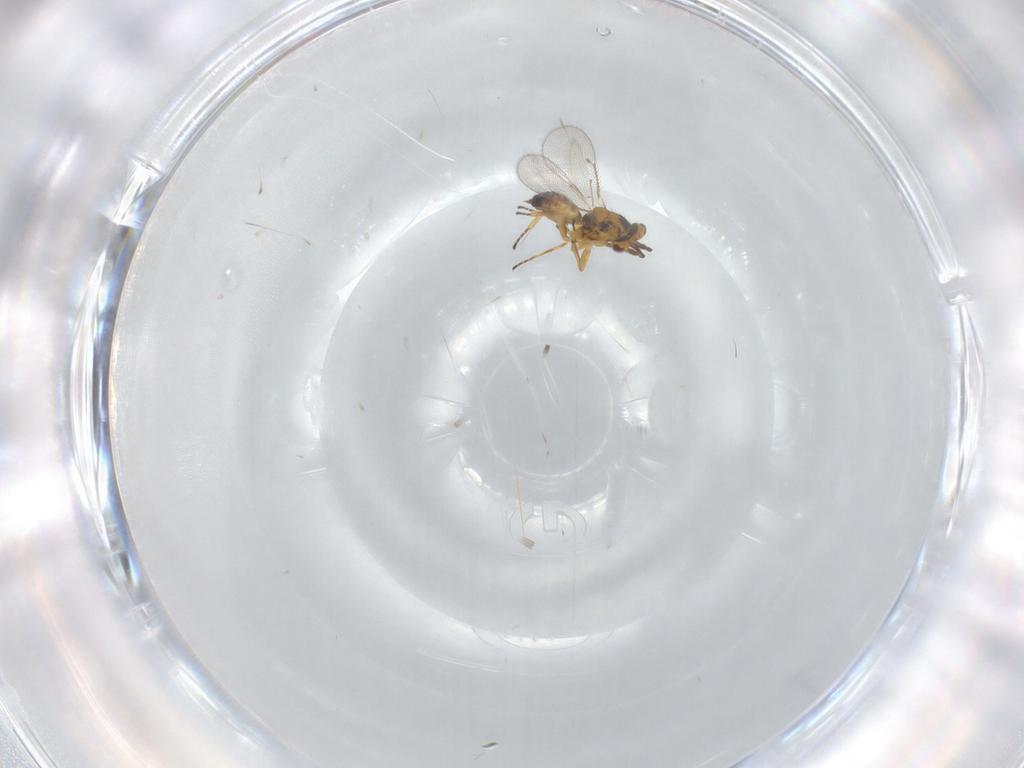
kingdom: Animalia
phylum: Arthropoda
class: Insecta
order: Hymenoptera
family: Eulophidae
